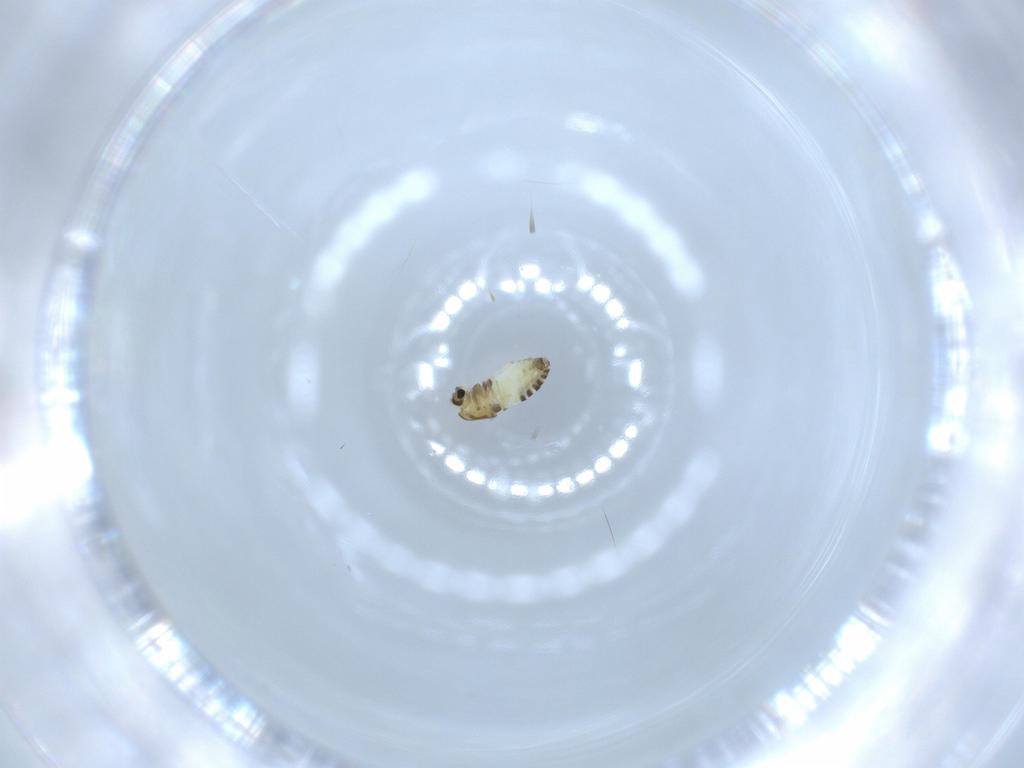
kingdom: Animalia
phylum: Arthropoda
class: Insecta
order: Diptera
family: Chironomidae
